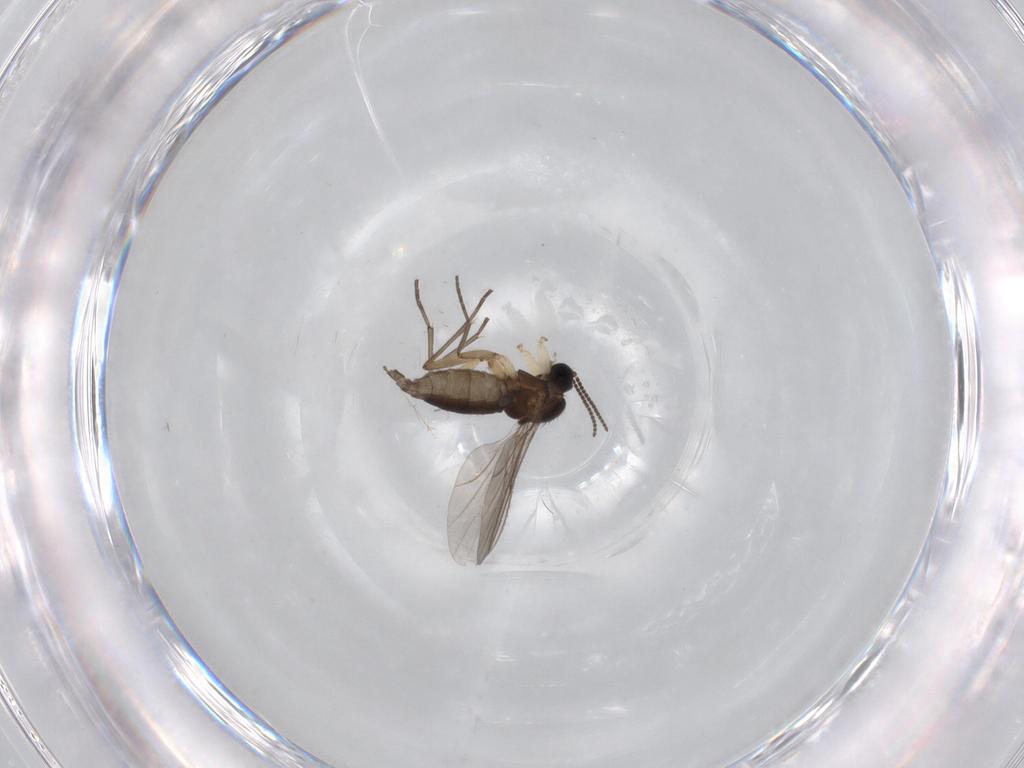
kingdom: Animalia
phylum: Arthropoda
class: Insecta
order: Diptera
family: Sciaridae
